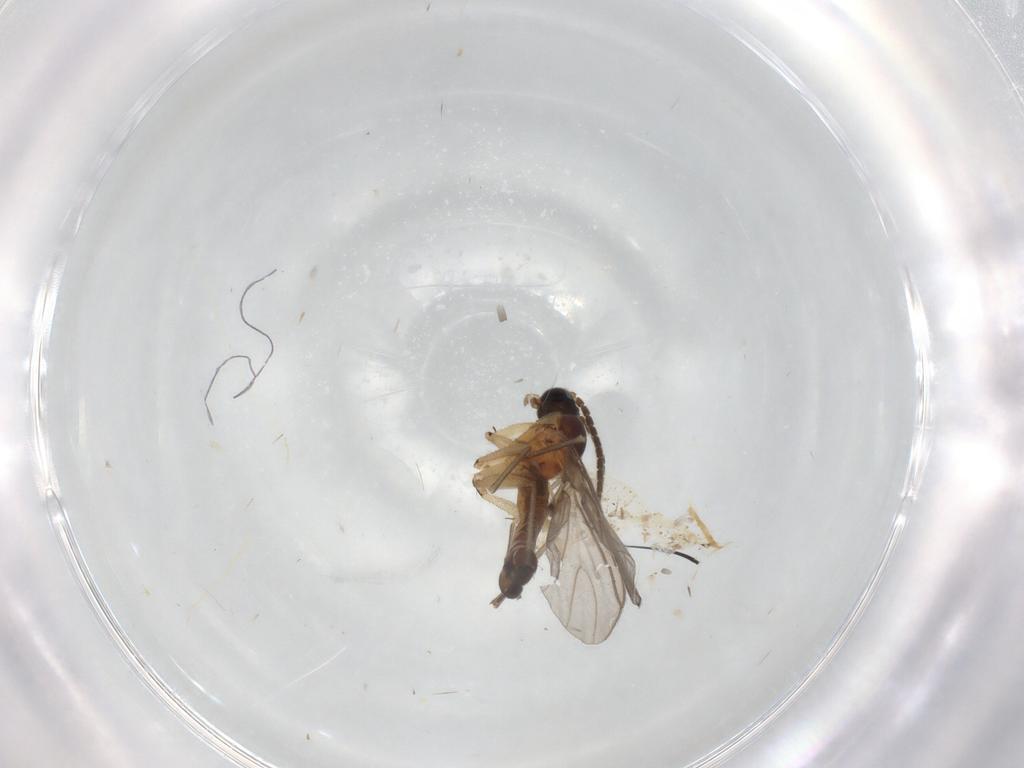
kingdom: Animalia
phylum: Arthropoda
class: Insecta
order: Diptera
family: Sciaridae
